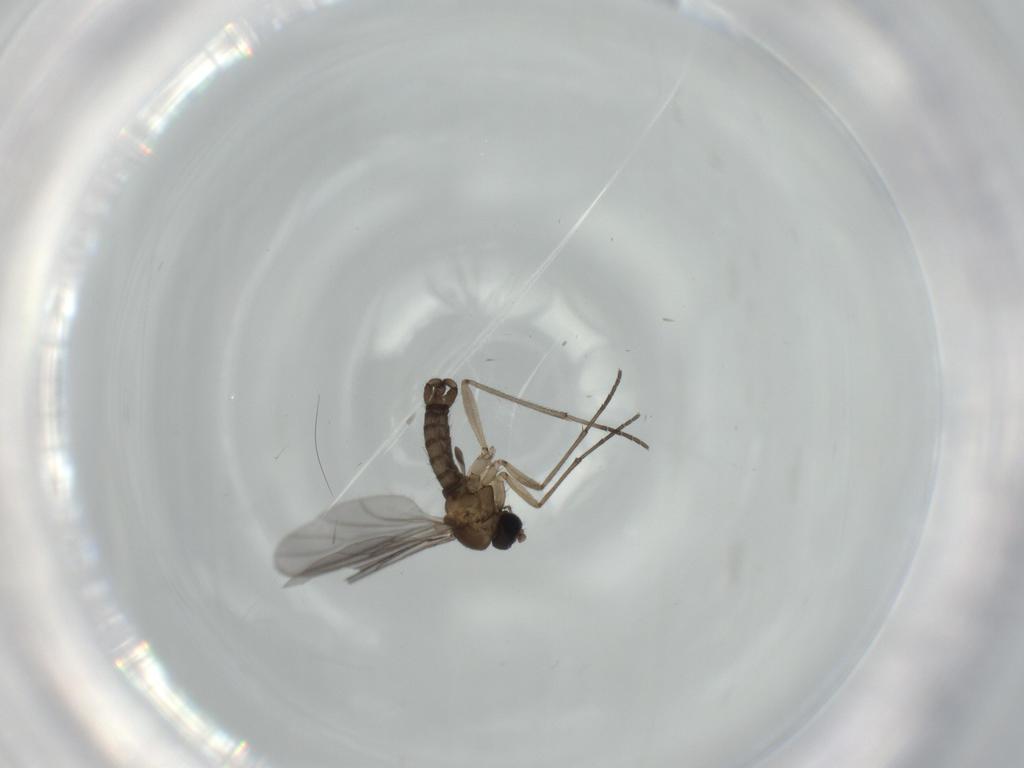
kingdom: Animalia
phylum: Arthropoda
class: Insecta
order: Diptera
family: Sciaridae
